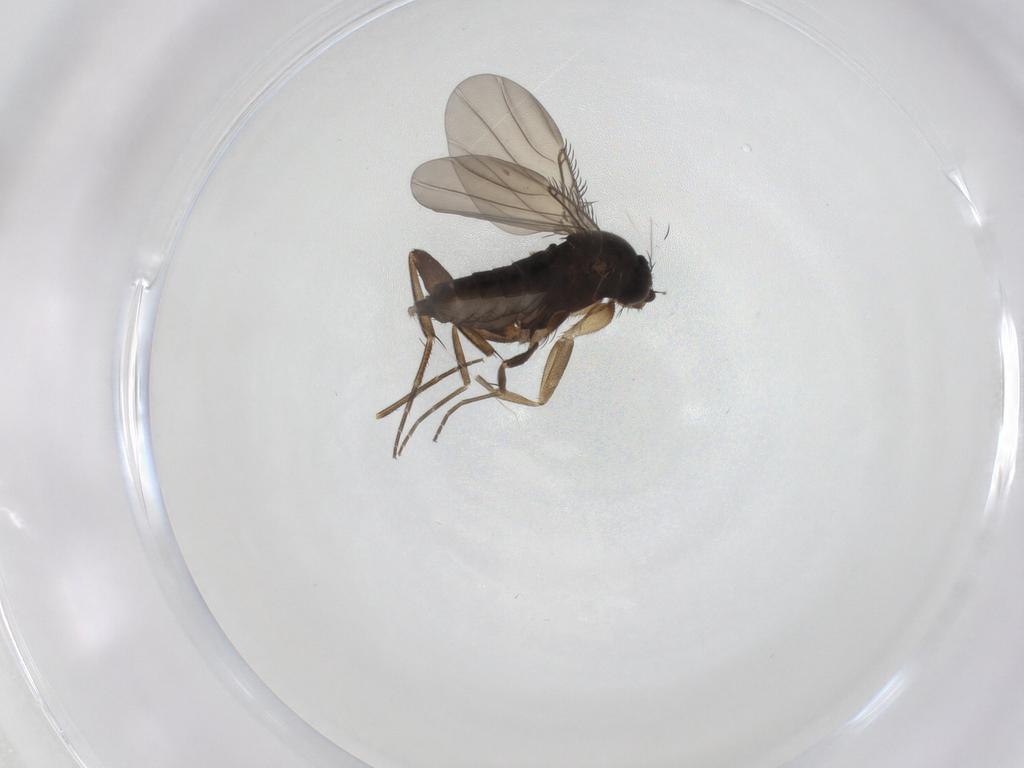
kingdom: Animalia
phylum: Arthropoda
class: Insecta
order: Diptera
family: Phoridae
